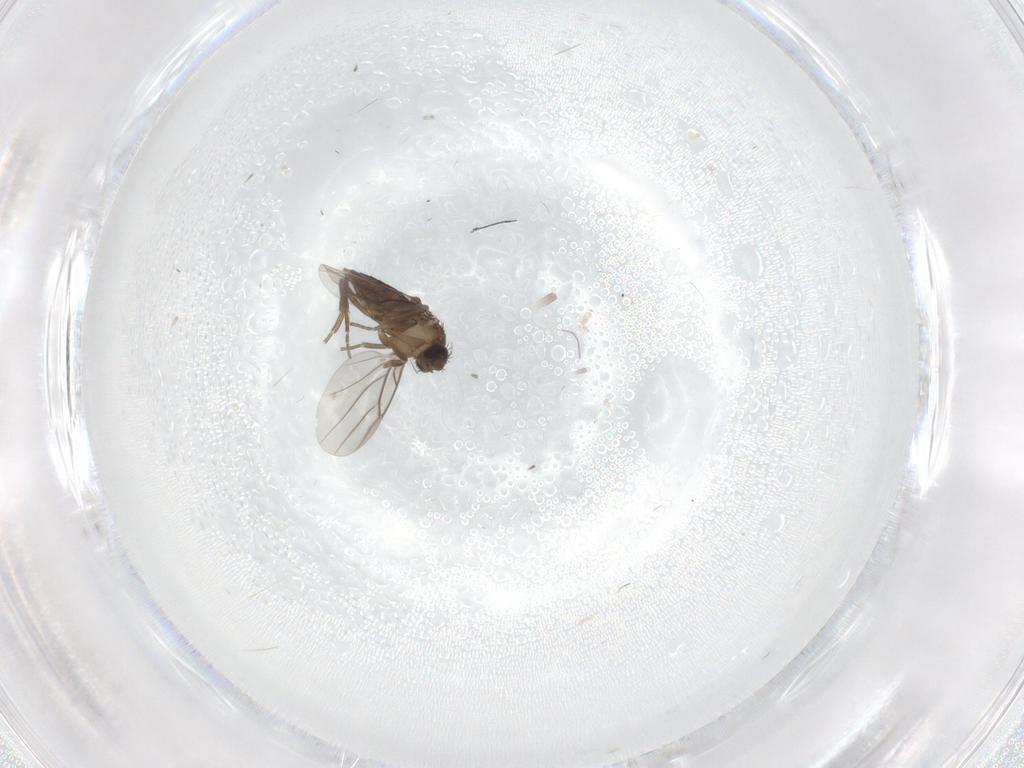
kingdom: Animalia
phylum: Arthropoda
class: Insecta
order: Diptera
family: Phoridae
